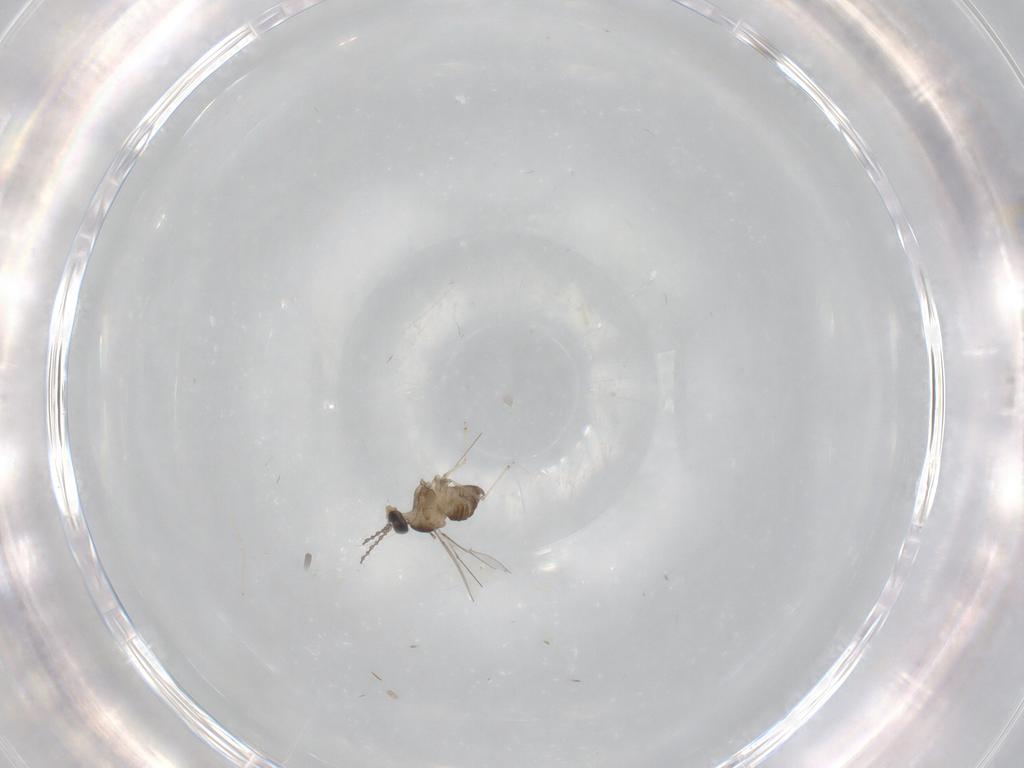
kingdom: Animalia
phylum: Arthropoda
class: Insecta
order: Diptera
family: Cecidomyiidae
